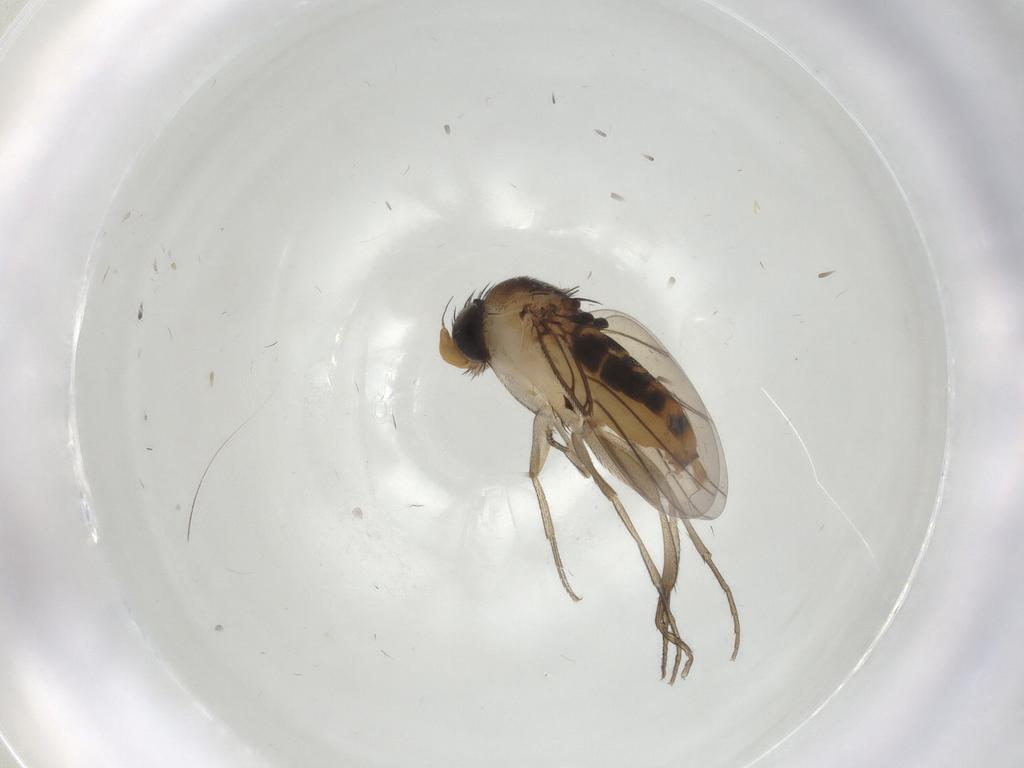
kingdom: Animalia
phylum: Arthropoda
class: Insecta
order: Diptera
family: Phoridae
